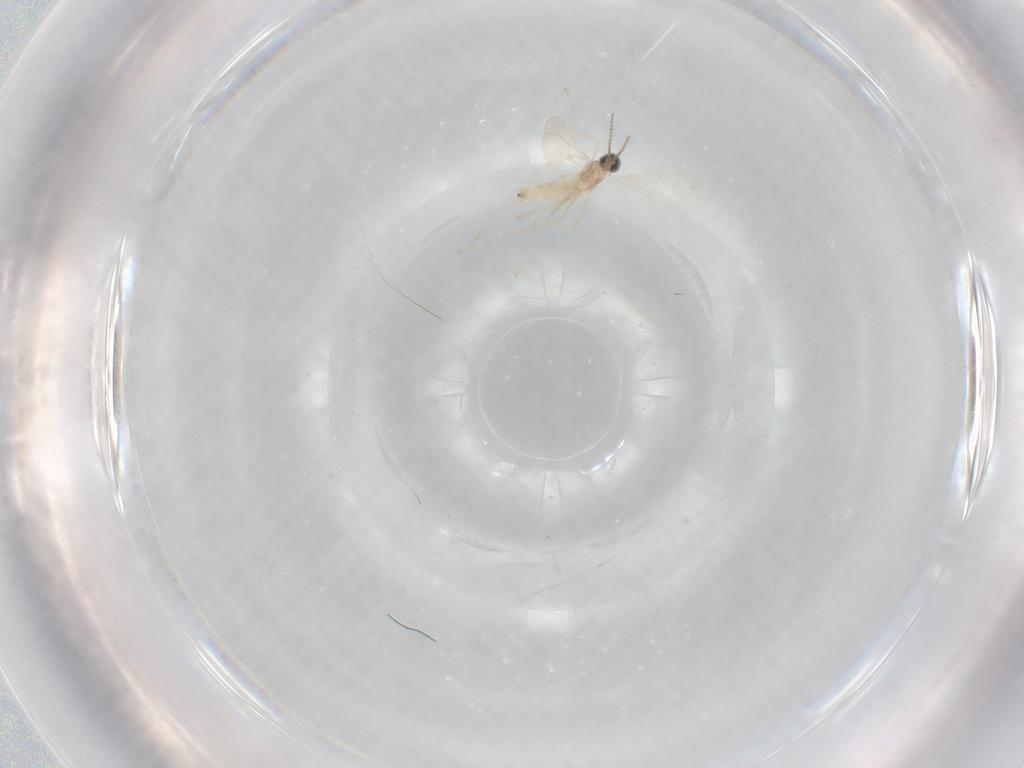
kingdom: Animalia
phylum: Arthropoda
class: Insecta
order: Diptera
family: Cecidomyiidae
